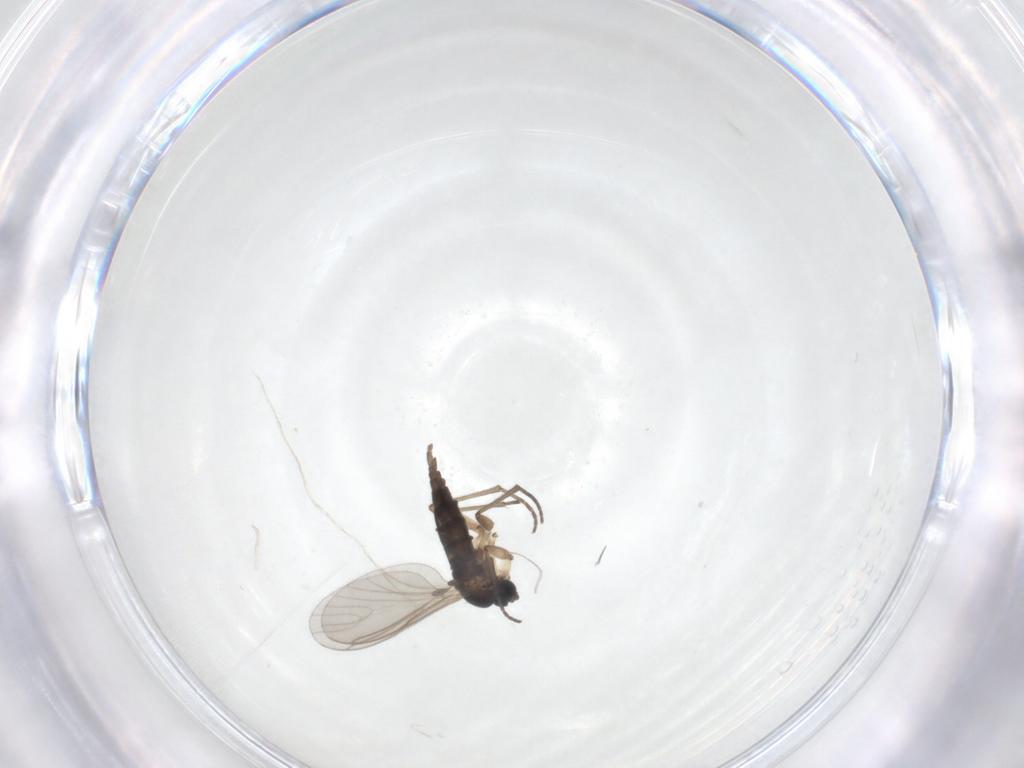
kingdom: Animalia
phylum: Arthropoda
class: Insecta
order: Diptera
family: Sciaridae
